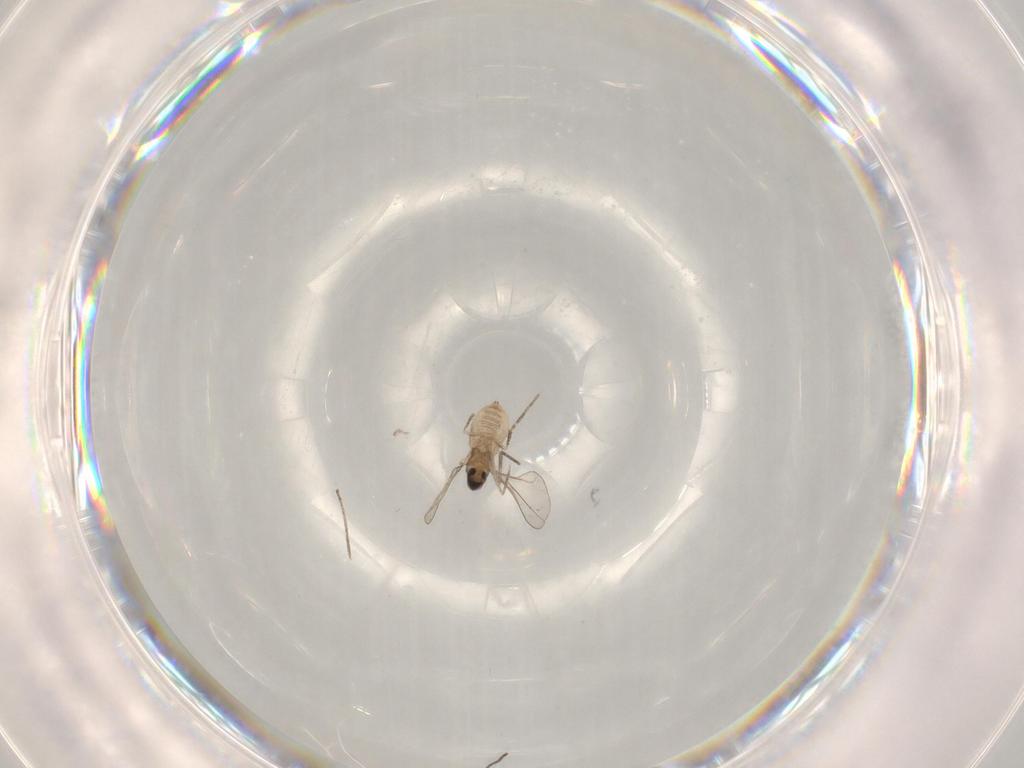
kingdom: Animalia
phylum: Arthropoda
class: Insecta
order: Diptera
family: Cecidomyiidae
